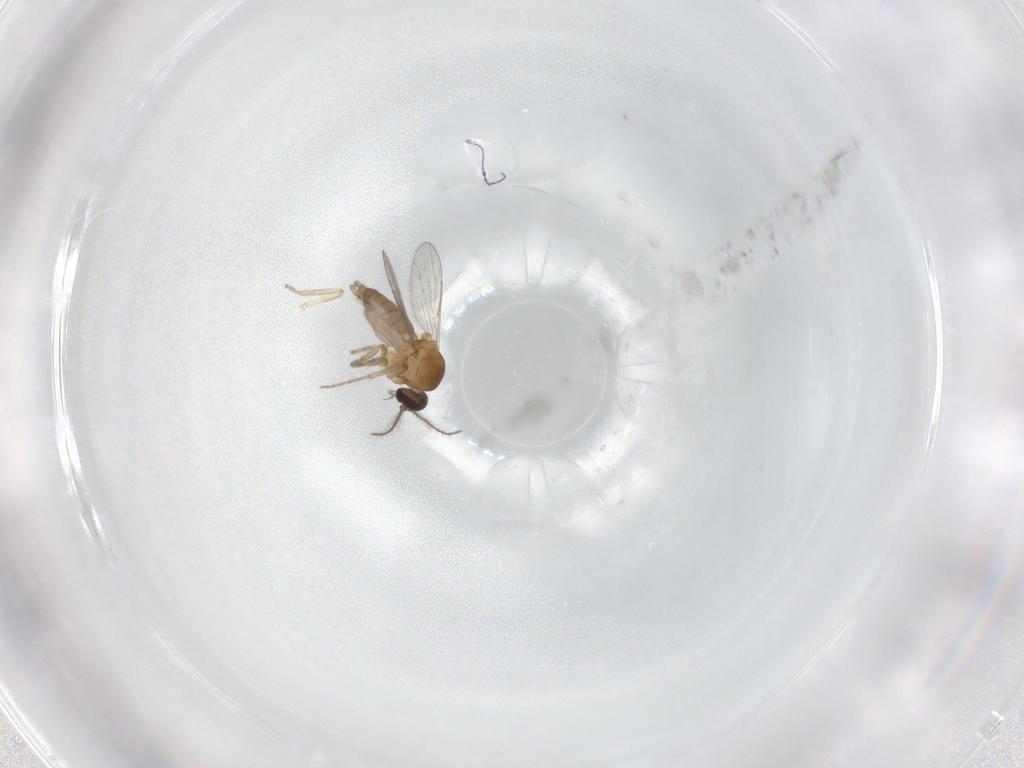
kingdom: Animalia
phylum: Arthropoda
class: Insecta
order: Diptera
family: Ceratopogonidae
